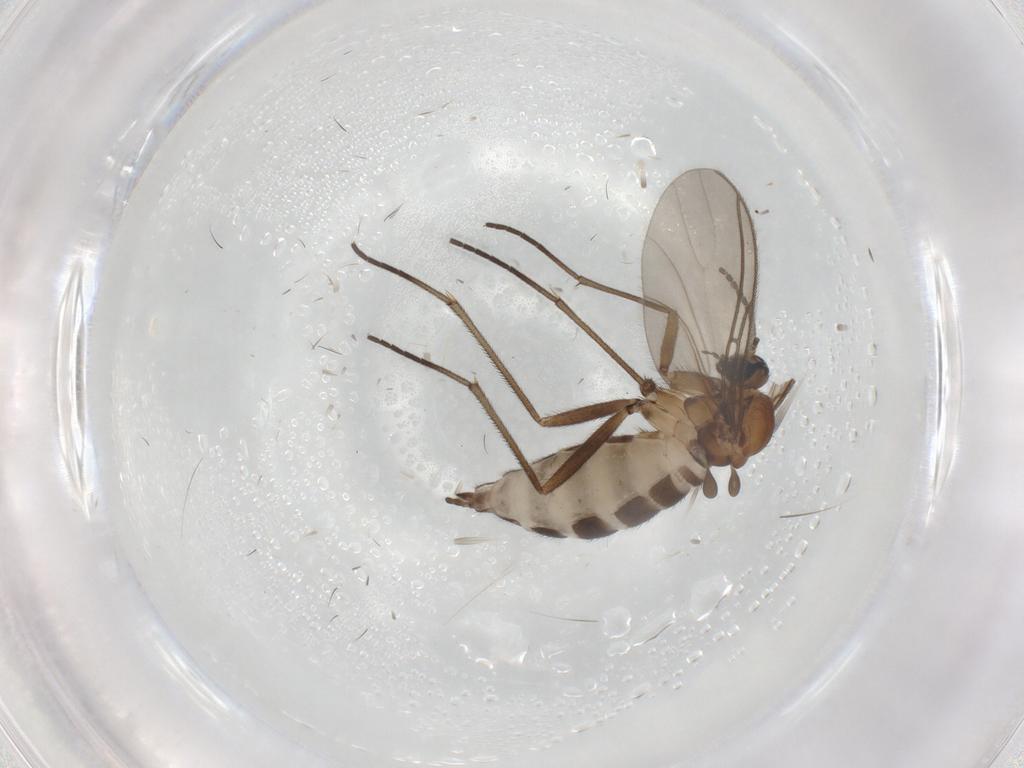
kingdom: Animalia
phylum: Arthropoda
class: Insecta
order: Diptera
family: Sciaridae
